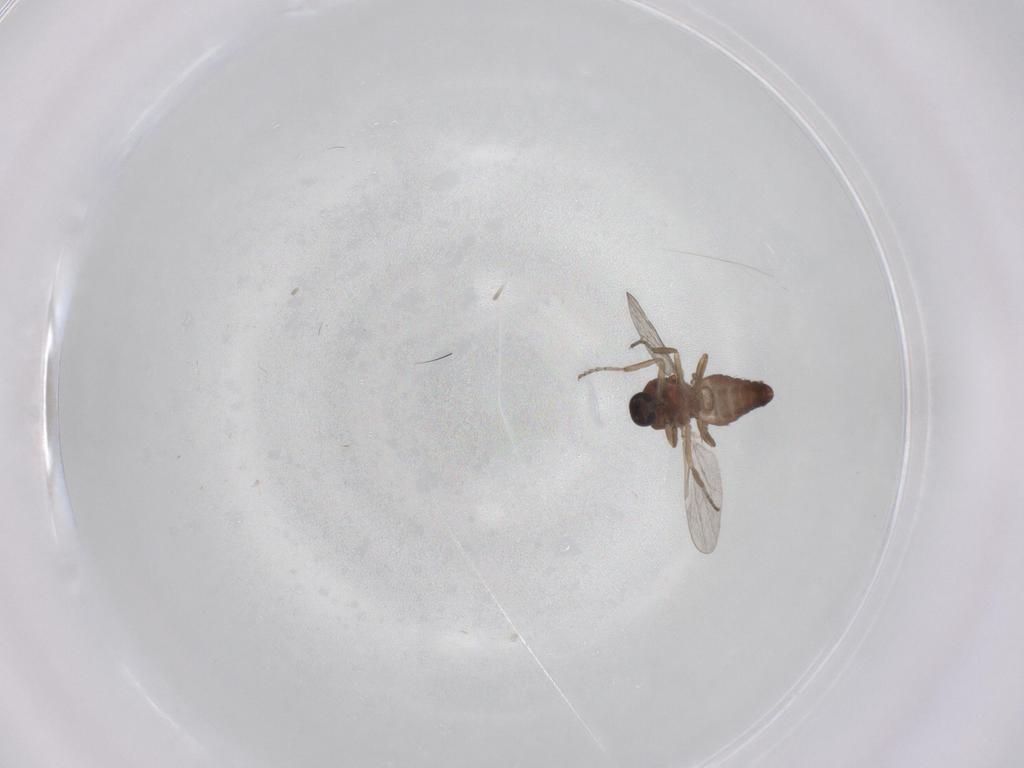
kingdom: Animalia
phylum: Arthropoda
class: Insecta
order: Diptera
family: Ceratopogonidae
